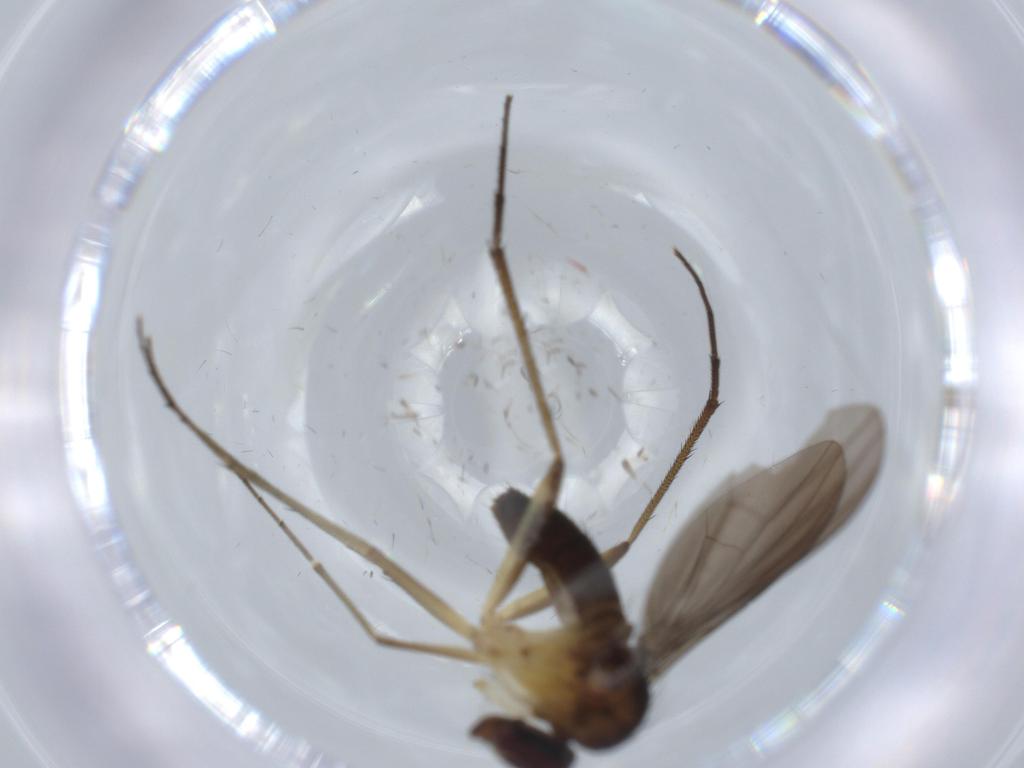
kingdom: Animalia
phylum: Arthropoda
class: Insecta
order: Diptera
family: Dolichopodidae
